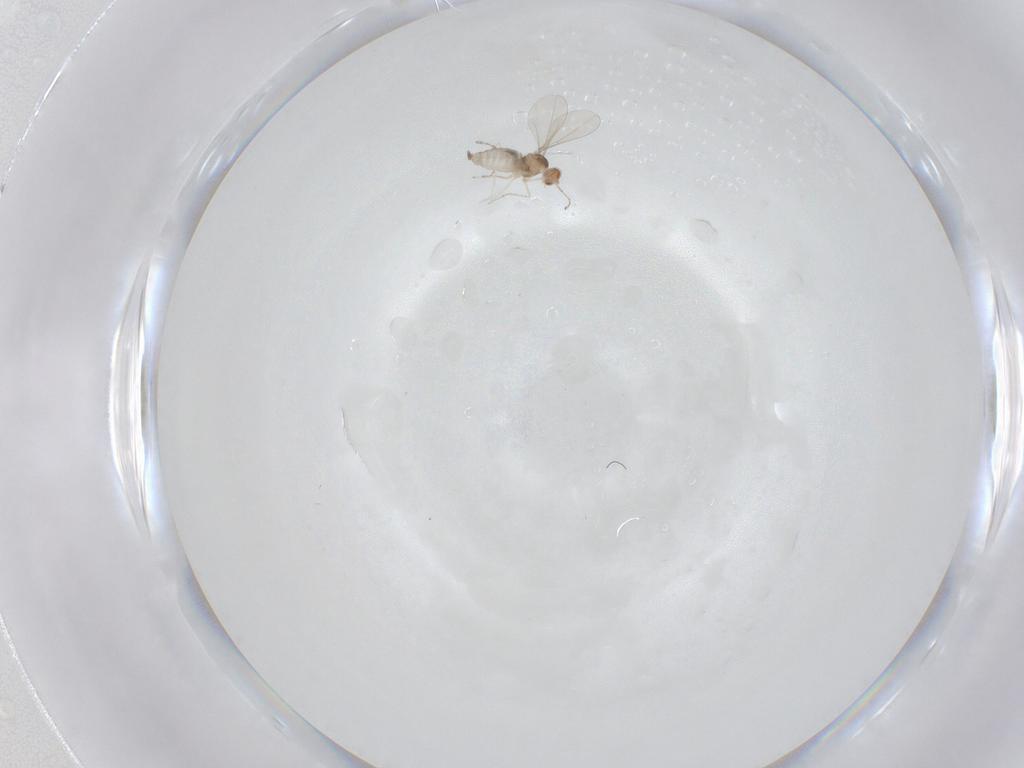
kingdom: Animalia
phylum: Arthropoda
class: Insecta
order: Diptera
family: Cecidomyiidae
